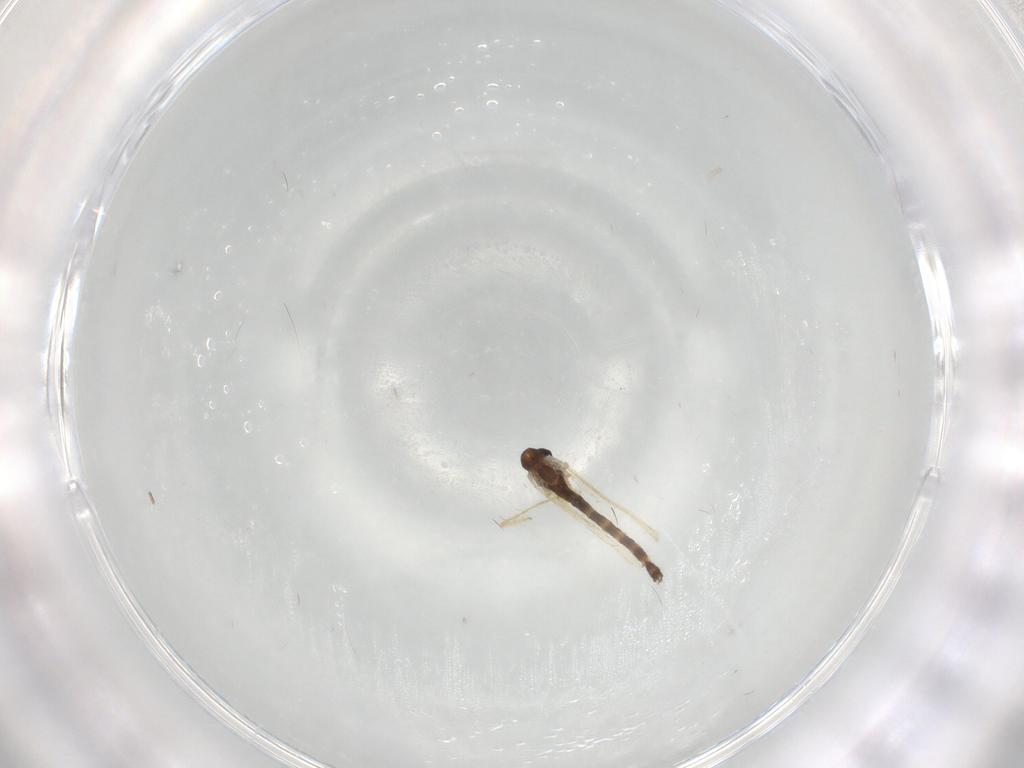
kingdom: Animalia
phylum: Arthropoda
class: Insecta
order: Diptera
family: Chironomidae
